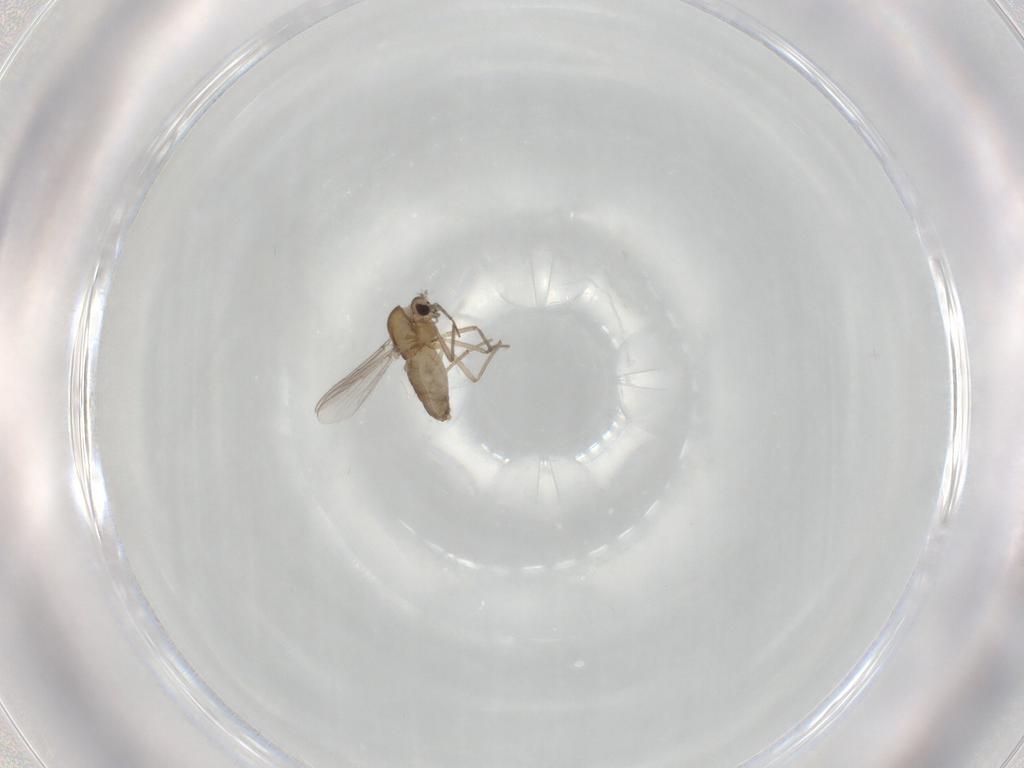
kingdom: Animalia
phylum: Arthropoda
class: Insecta
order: Diptera
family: Chironomidae
